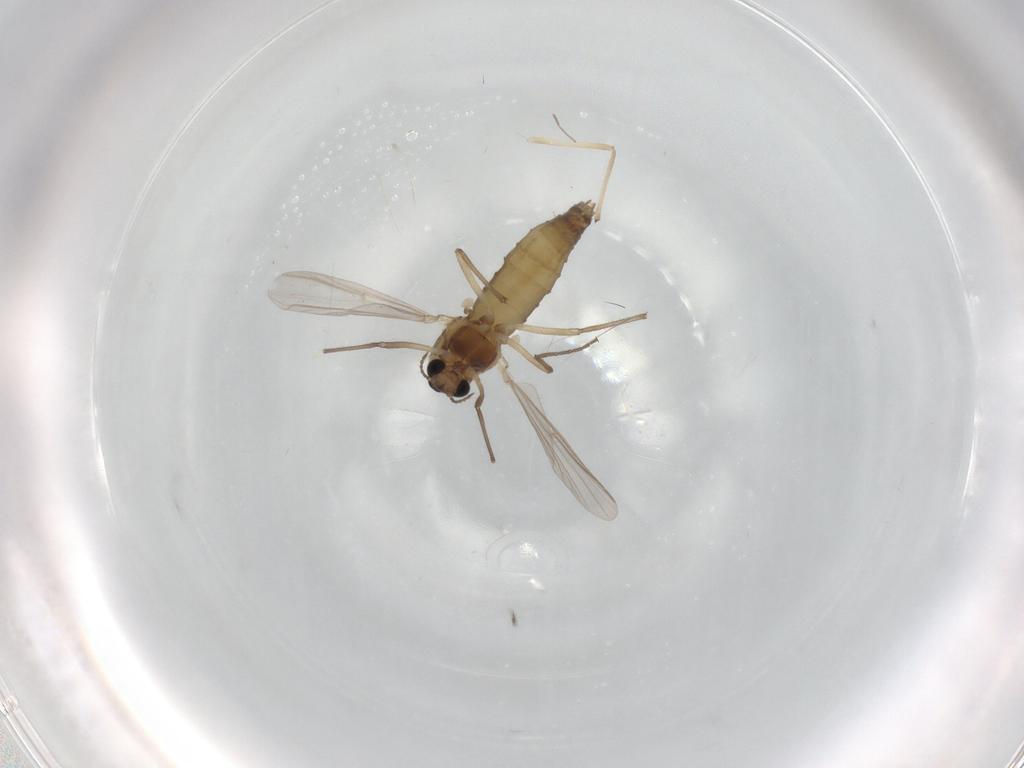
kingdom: Animalia
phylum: Arthropoda
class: Insecta
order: Diptera
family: Chironomidae
